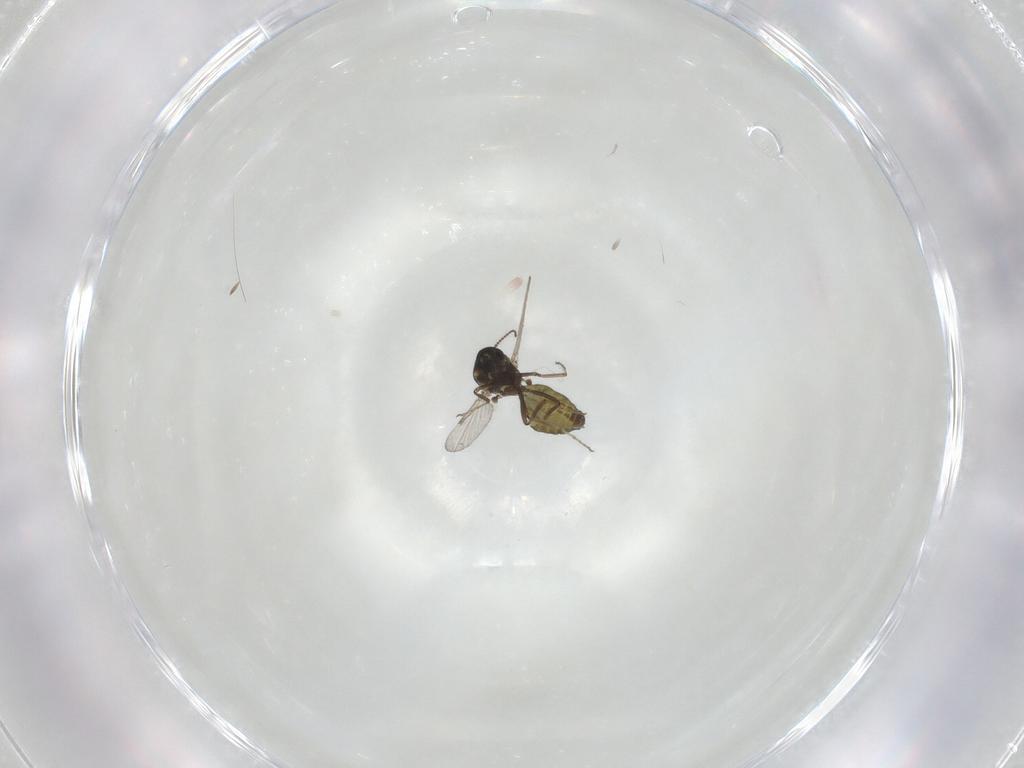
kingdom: Animalia
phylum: Arthropoda
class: Insecta
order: Diptera
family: Ceratopogonidae
